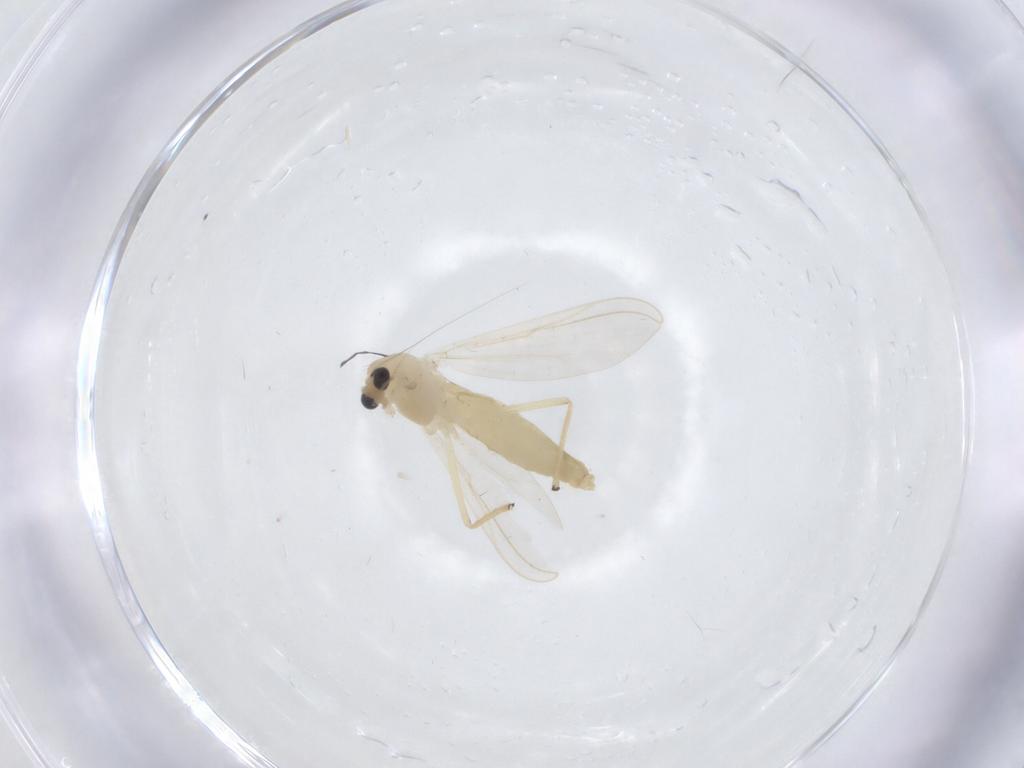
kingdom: Animalia
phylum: Arthropoda
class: Insecta
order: Diptera
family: Chironomidae
